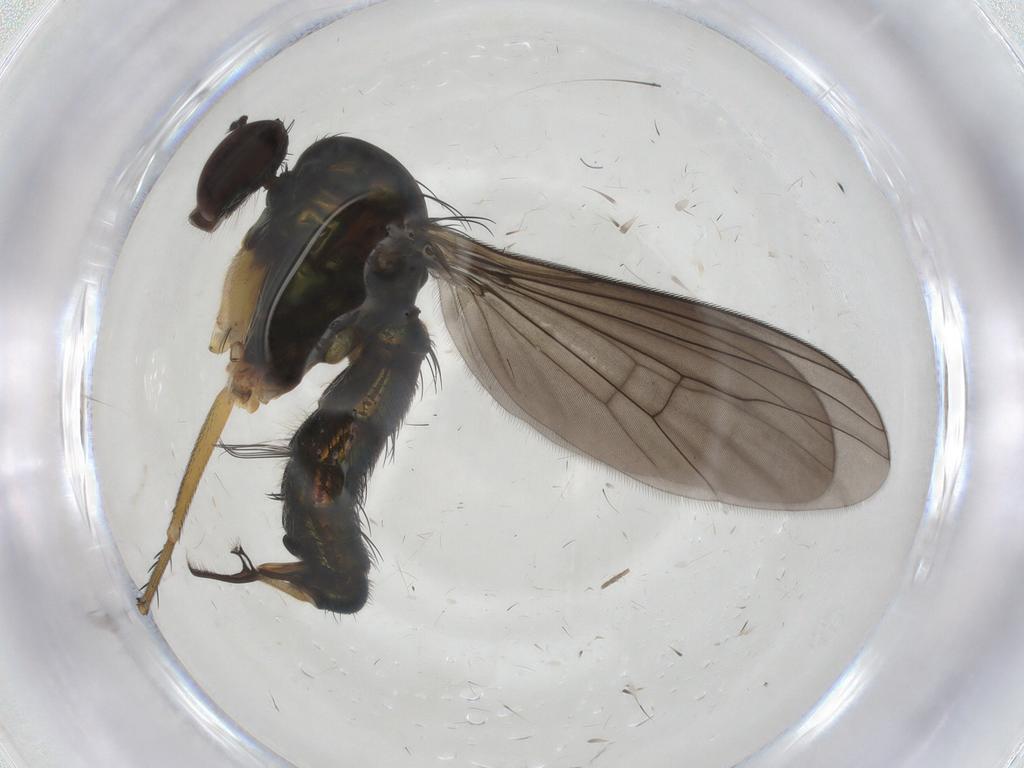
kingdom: Animalia
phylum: Arthropoda
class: Insecta
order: Diptera
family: Dolichopodidae
